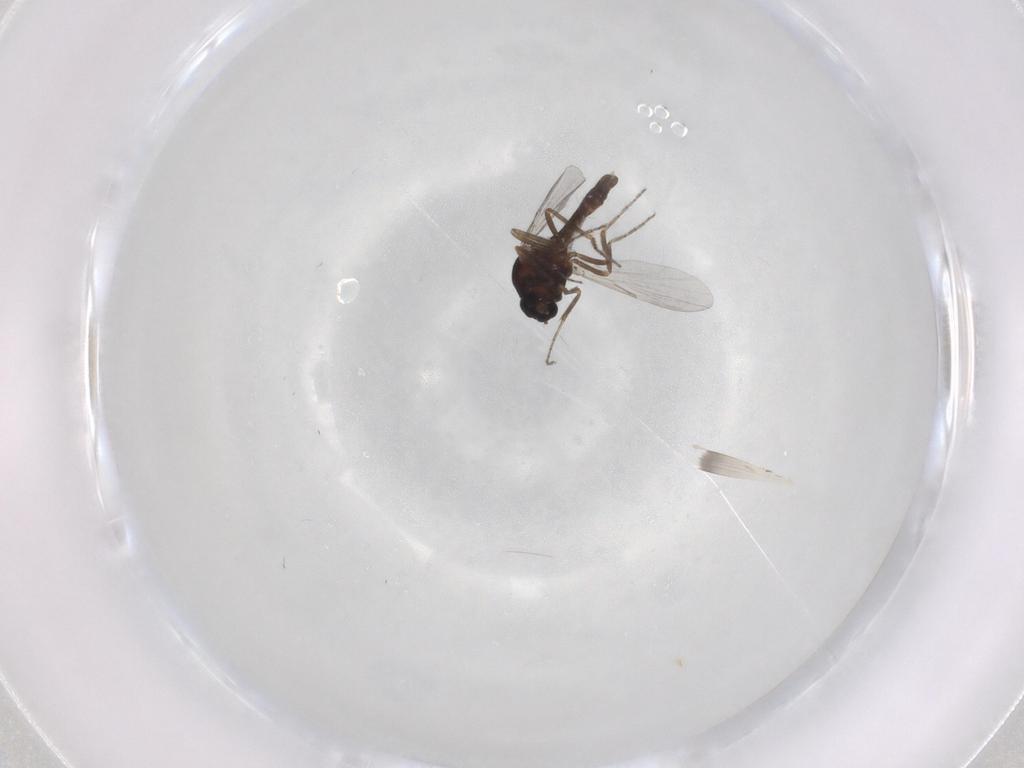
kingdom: Animalia
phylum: Arthropoda
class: Insecta
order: Diptera
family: Ceratopogonidae
